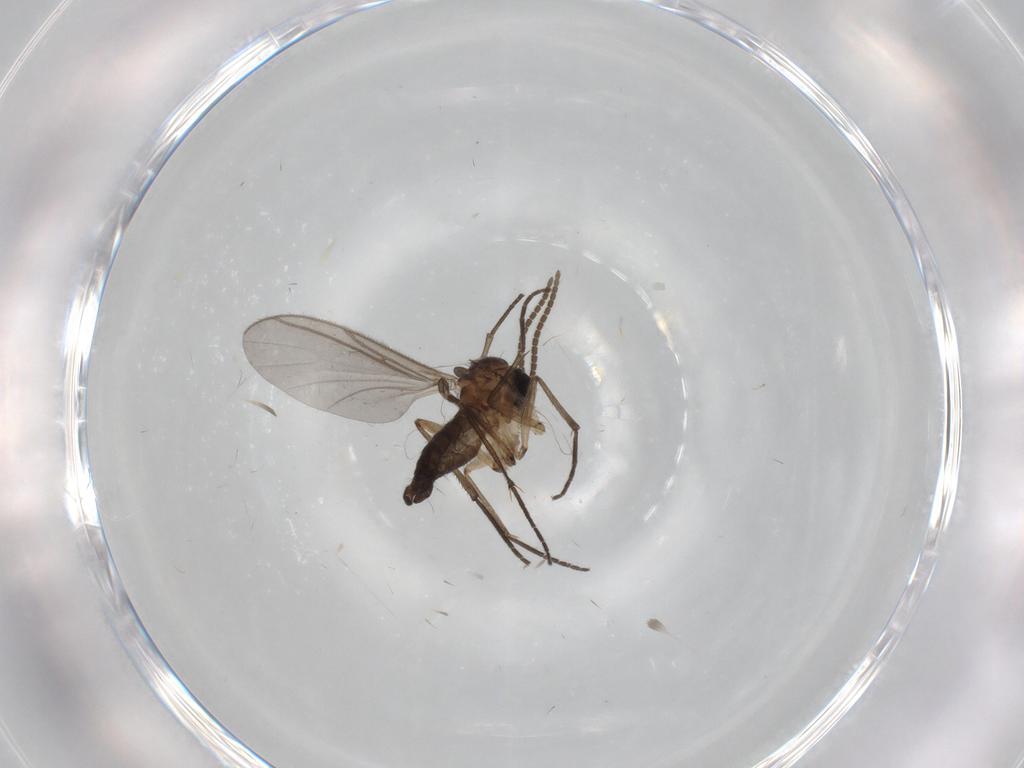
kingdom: Animalia
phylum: Arthropoda
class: Insecta
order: Diptera
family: Cecidomyiidae
